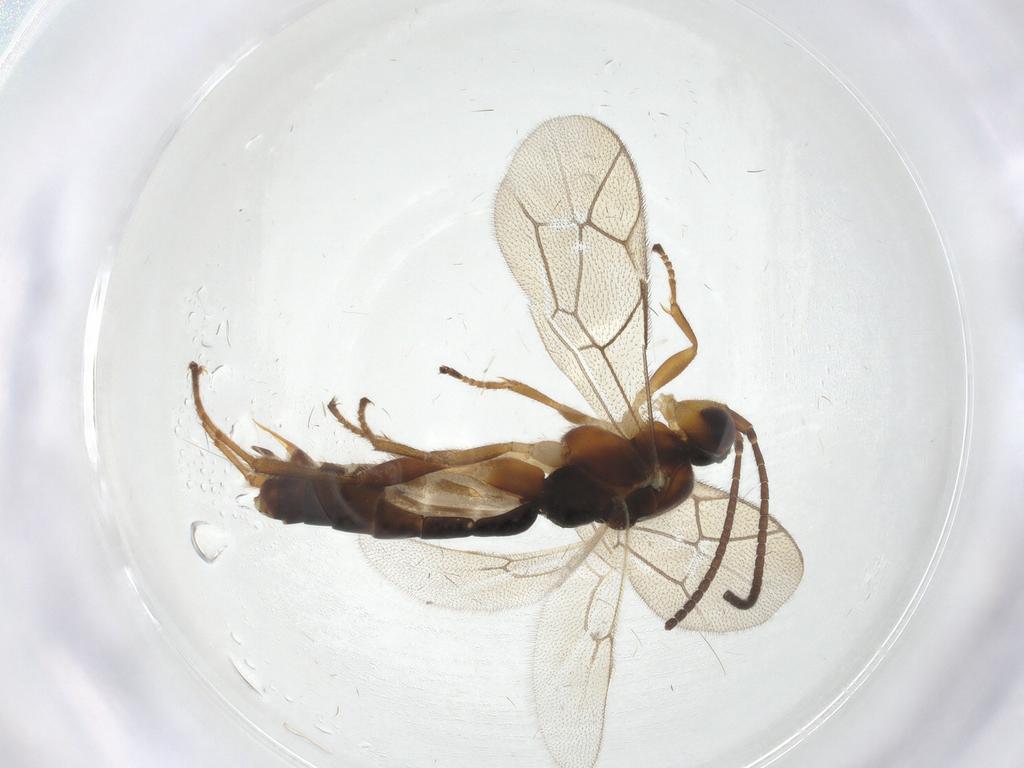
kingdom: Animalia
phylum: Arthropoda
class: Insecta
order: Hymenoptera
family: Ichneumonidae
